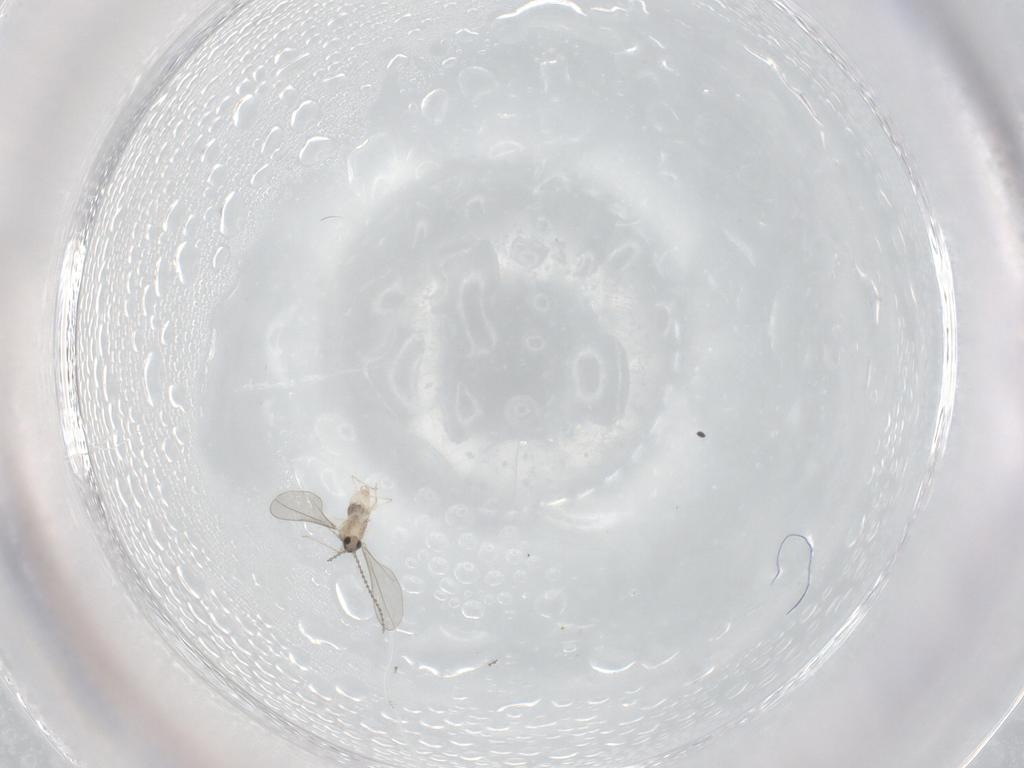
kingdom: Animalia
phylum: Arthropoda
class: Insecta
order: Diptera
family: Cecidomyiidae
